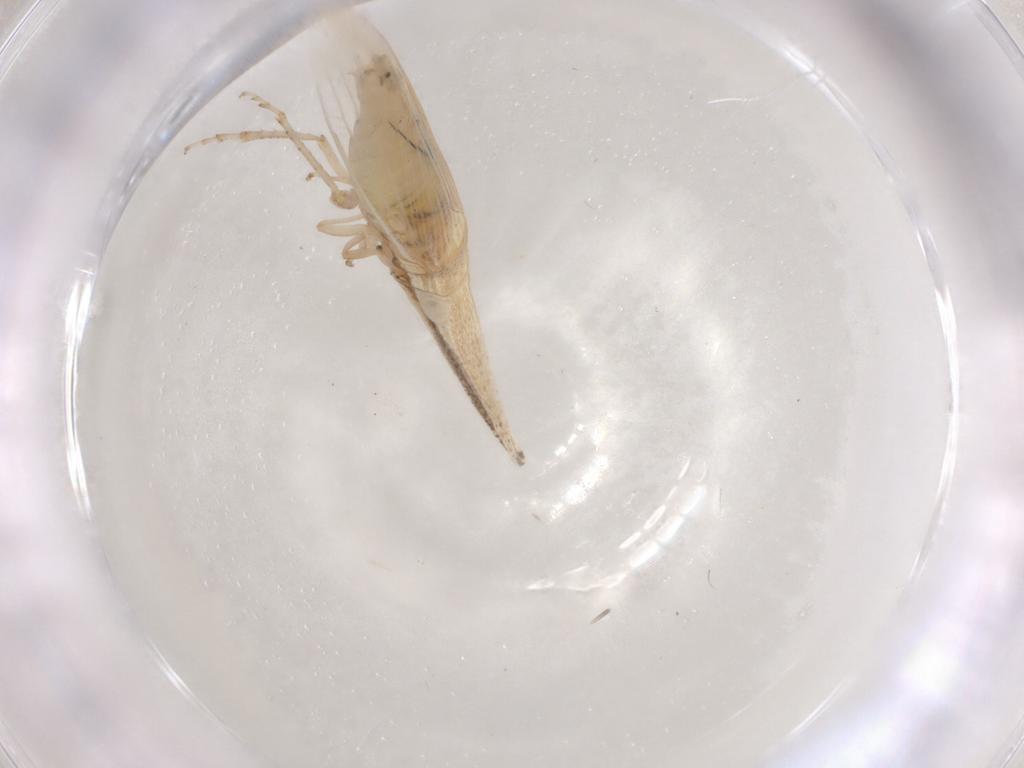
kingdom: Animalia
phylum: Arthropoda
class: Insecta
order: Hemiptera
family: Cicadellidae
